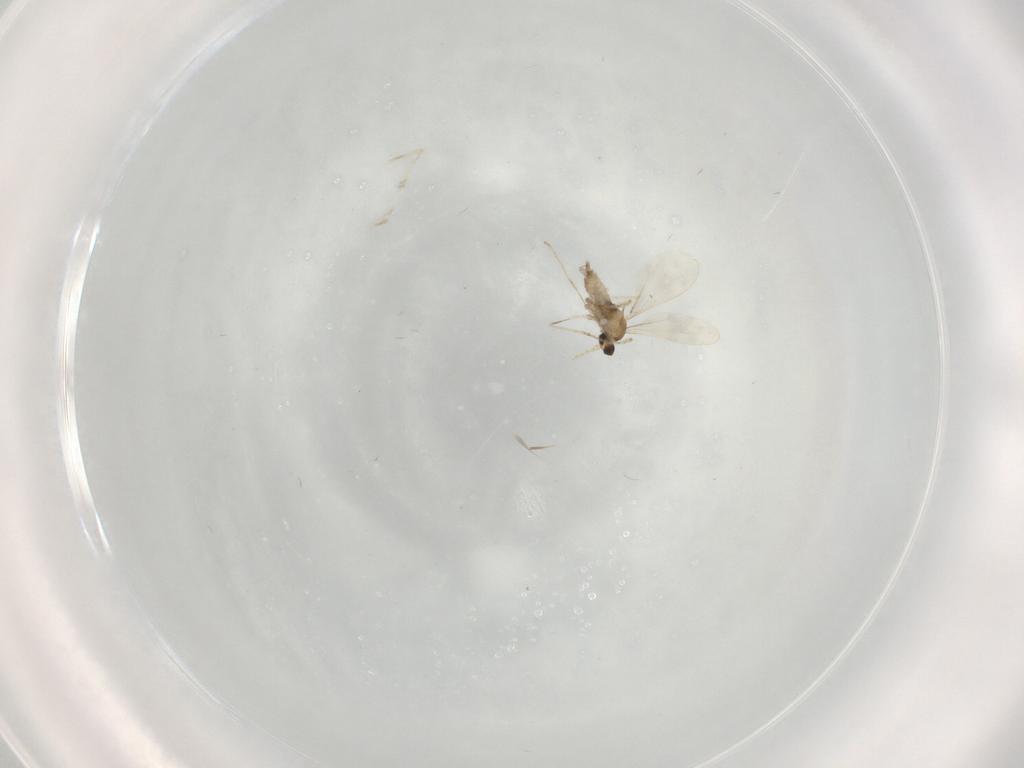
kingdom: Animalia
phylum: Arthropoda
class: Insecta
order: Diptera
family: Cecidomyiidae
